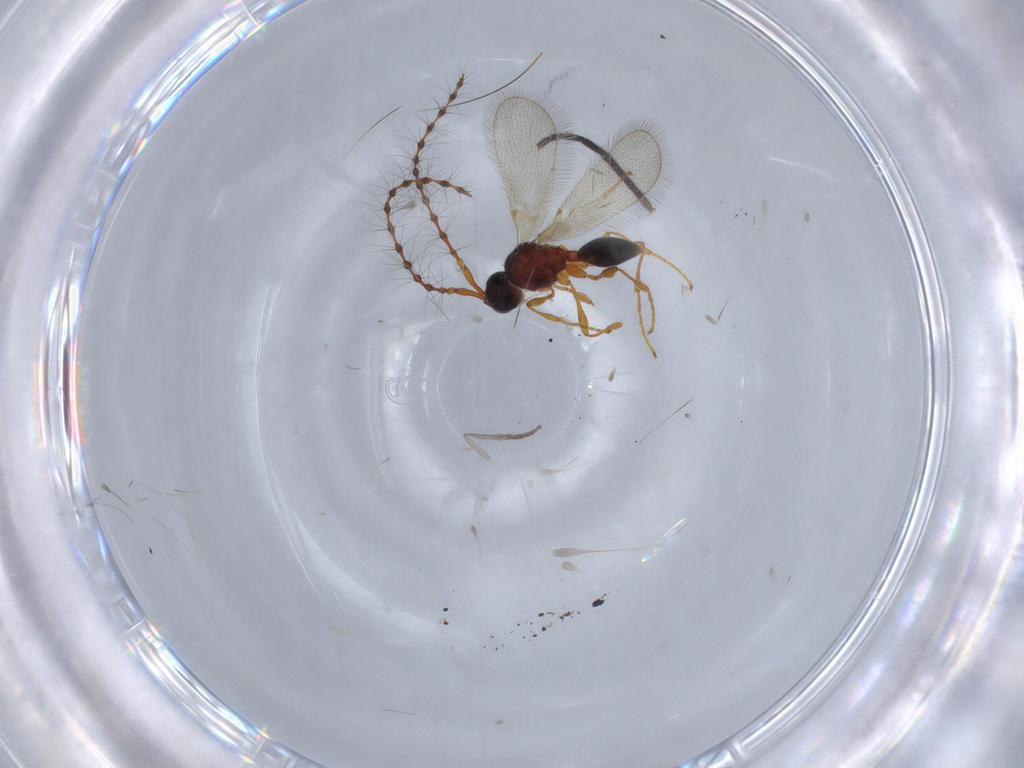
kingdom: Animalia
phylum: Arthropoda
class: Insecta
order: Hymenoptera
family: Diapriidae
